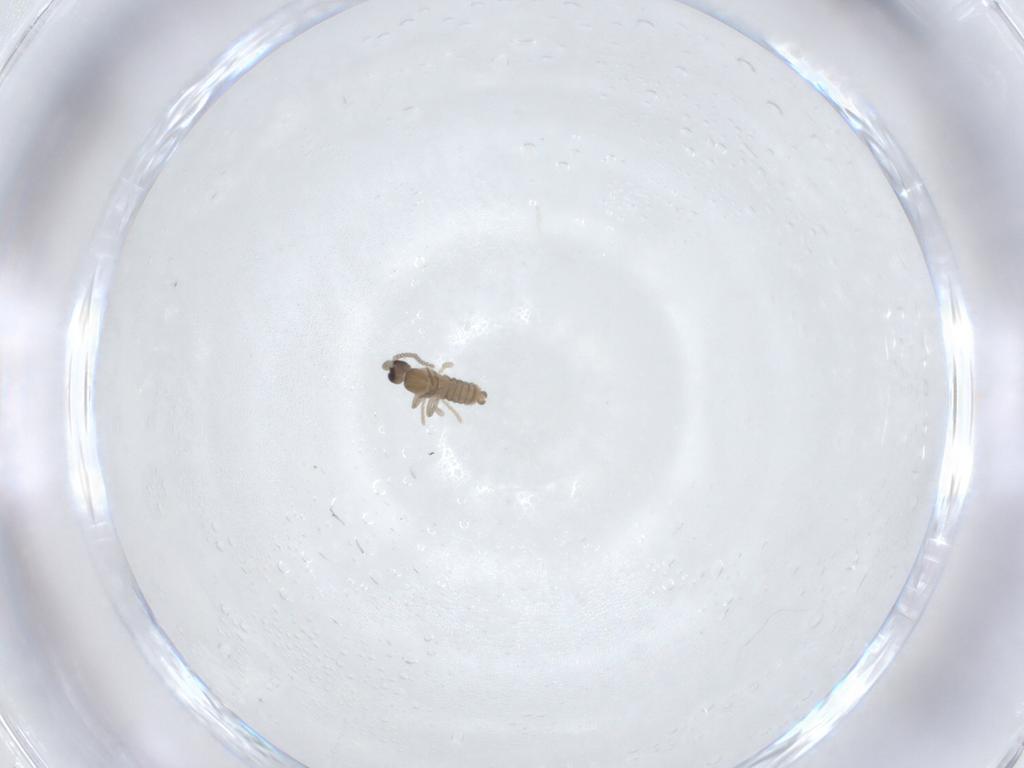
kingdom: Animalia
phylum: Arthropoda
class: Insecta
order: Diptera
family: Cecidomyiidae
